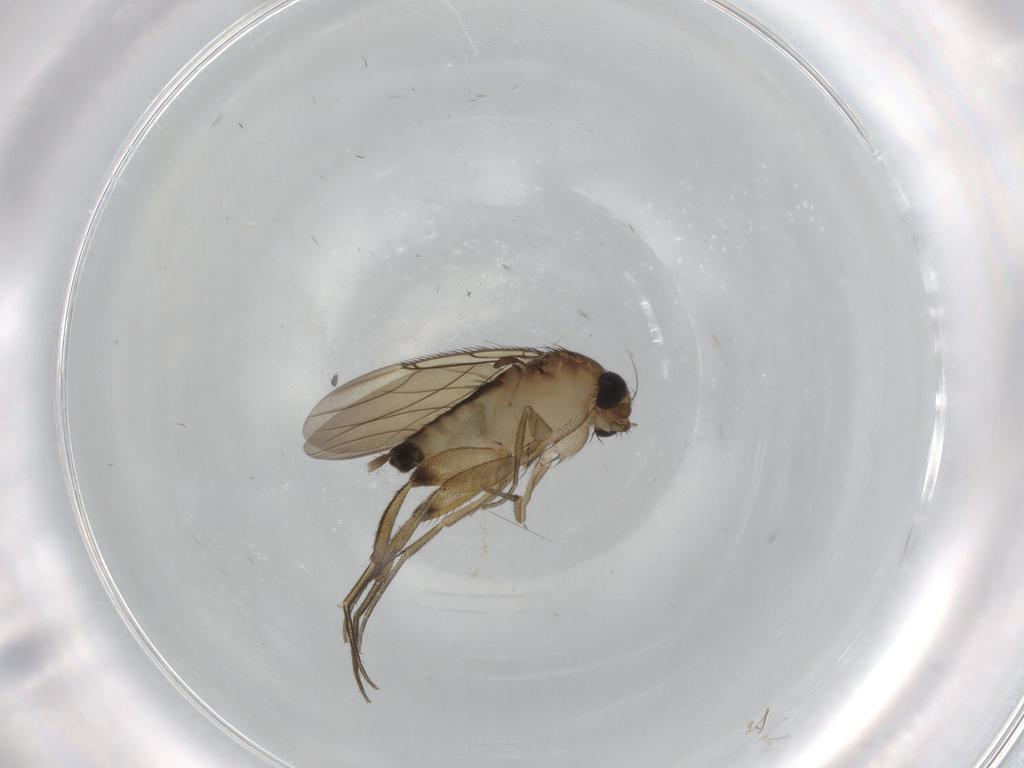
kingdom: Animalia
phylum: Arthropoda
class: Insecta
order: Diptera
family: Phoridae
